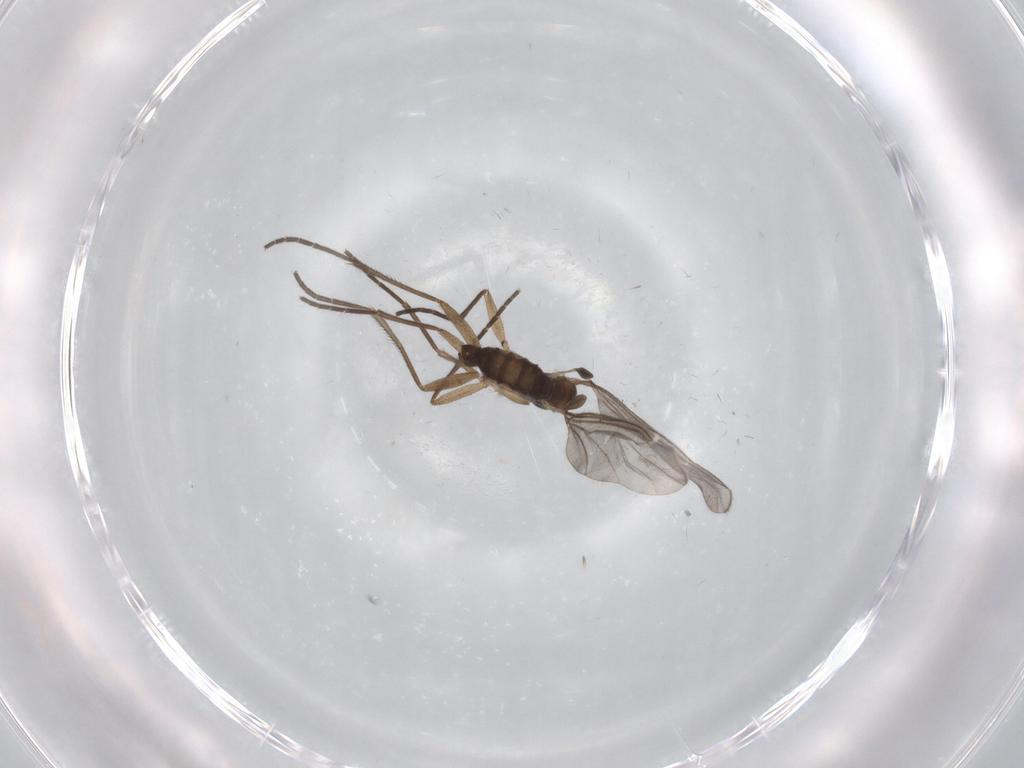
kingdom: Animalia
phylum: Arthropoda
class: Insecta
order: Diptera
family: Sciaridae
